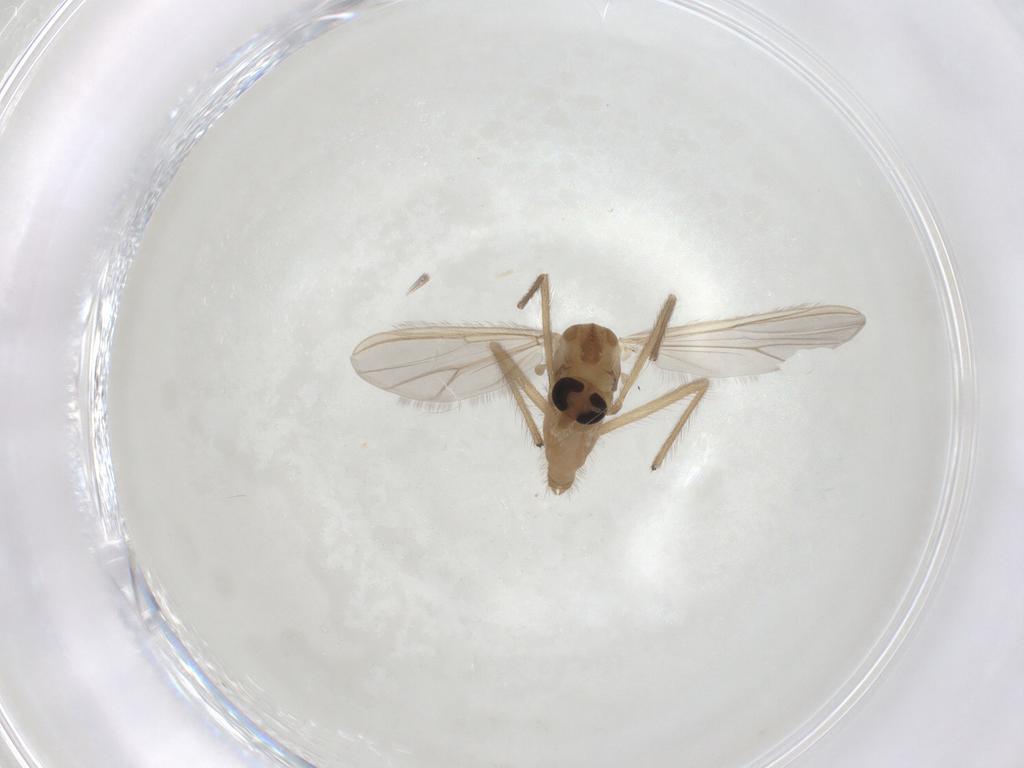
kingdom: Animalia
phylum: Arthropoda
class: Insecta
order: Diptera
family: Chironomidae
